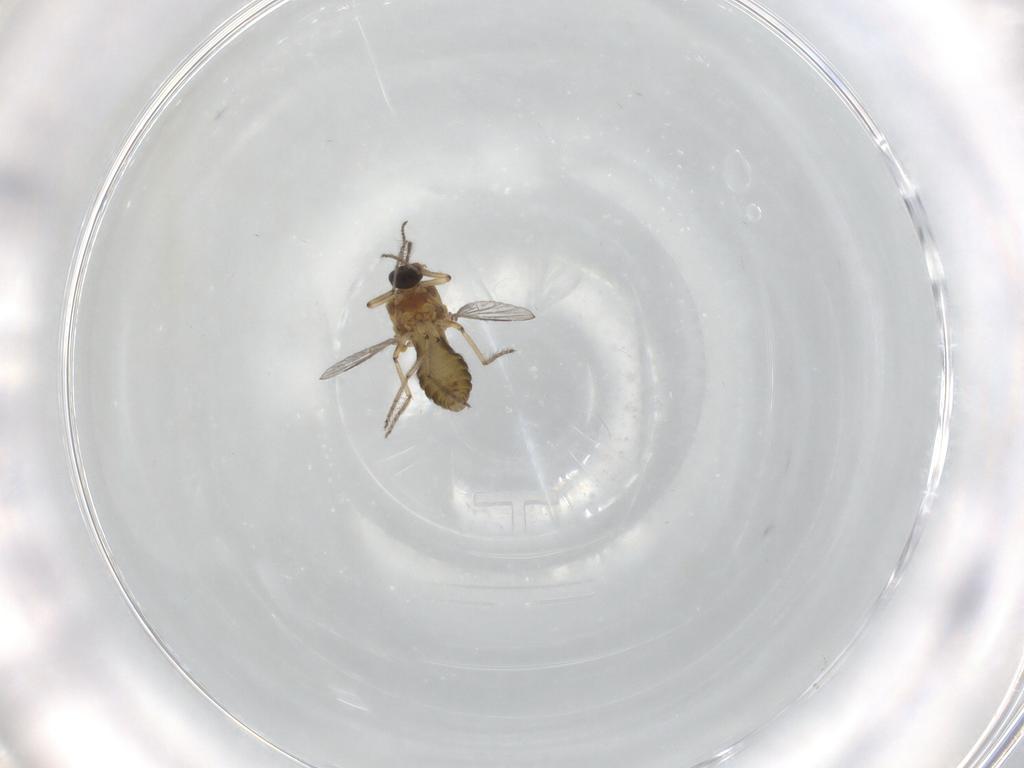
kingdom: Animalia
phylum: Arthropoda
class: Insecta
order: Diptera
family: Ceratopogonidae
